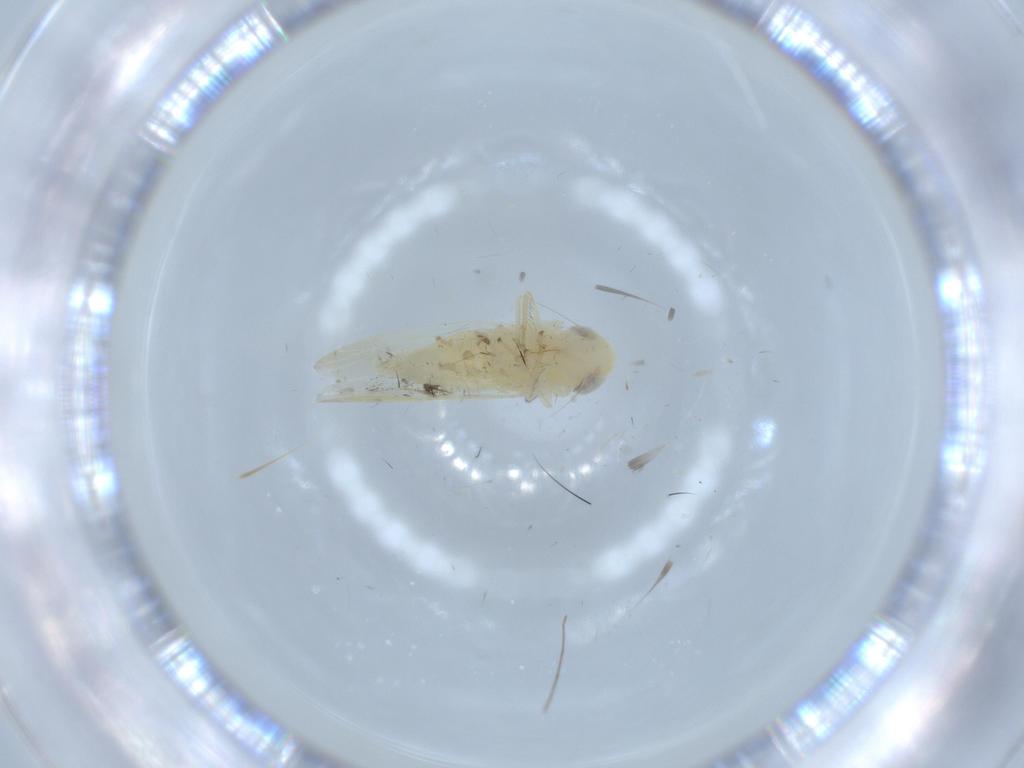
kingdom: Animalia
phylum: Arthropoda
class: Insecta
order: Hemiptera
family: Cicadellidae
